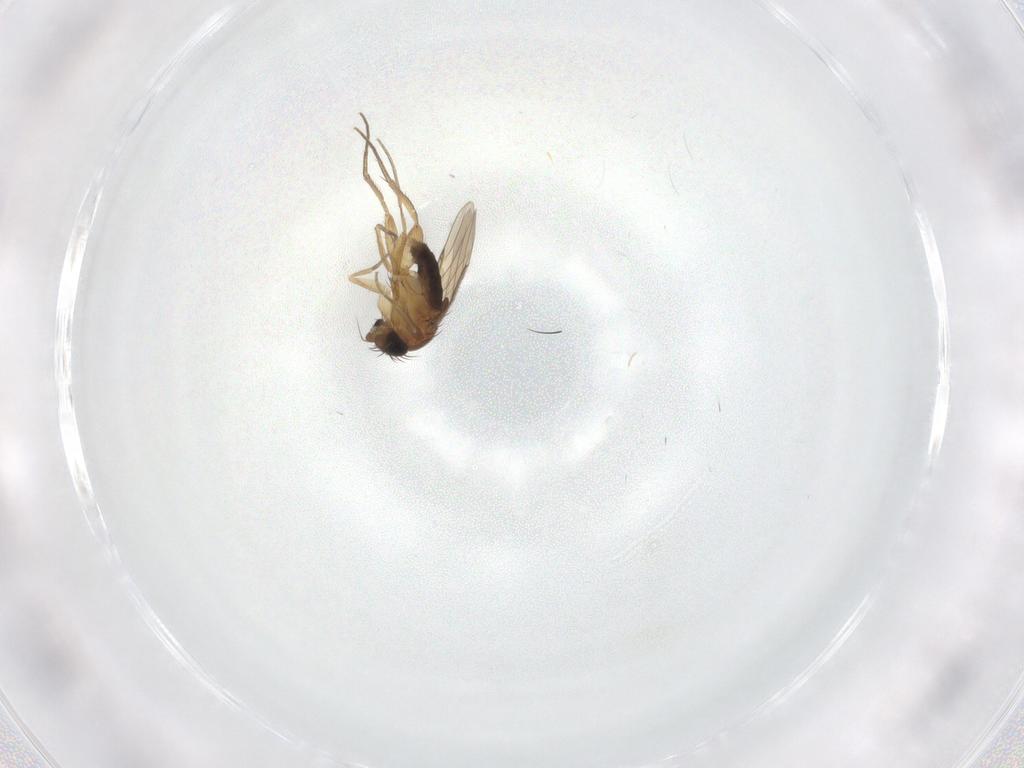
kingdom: Animalia
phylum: Arthropoda
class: Insecta
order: Diptera
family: Phoridae
